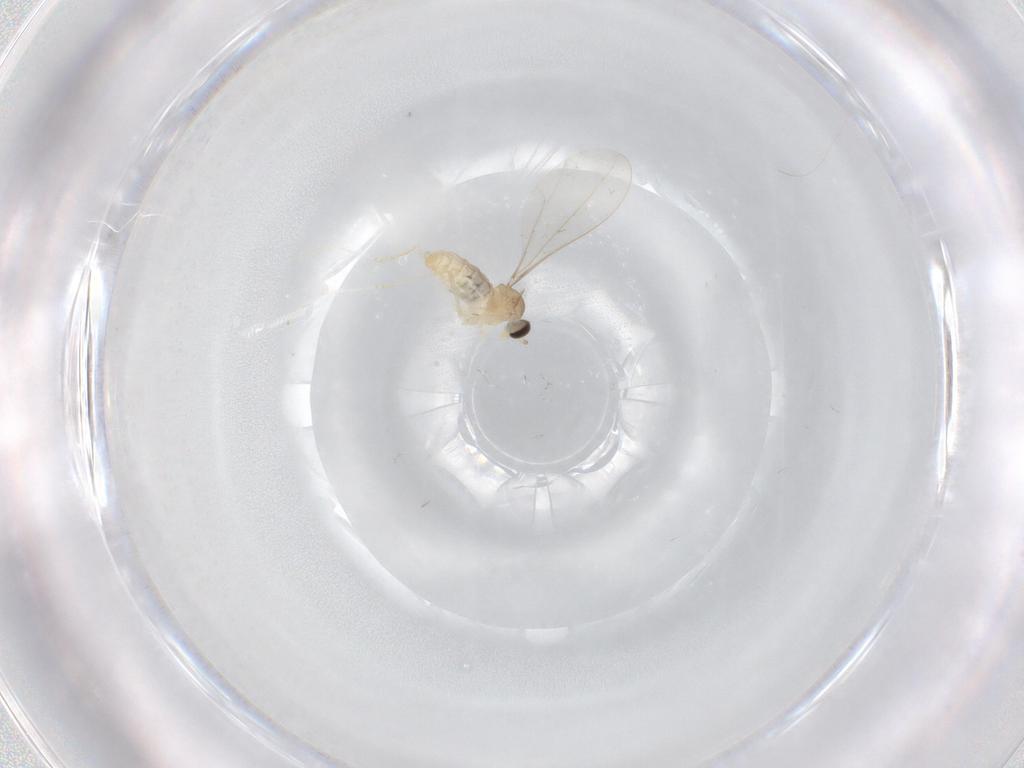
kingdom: Animalia
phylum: Arthropoda
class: Insecta
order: Diptera
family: Cecidomyiidae
